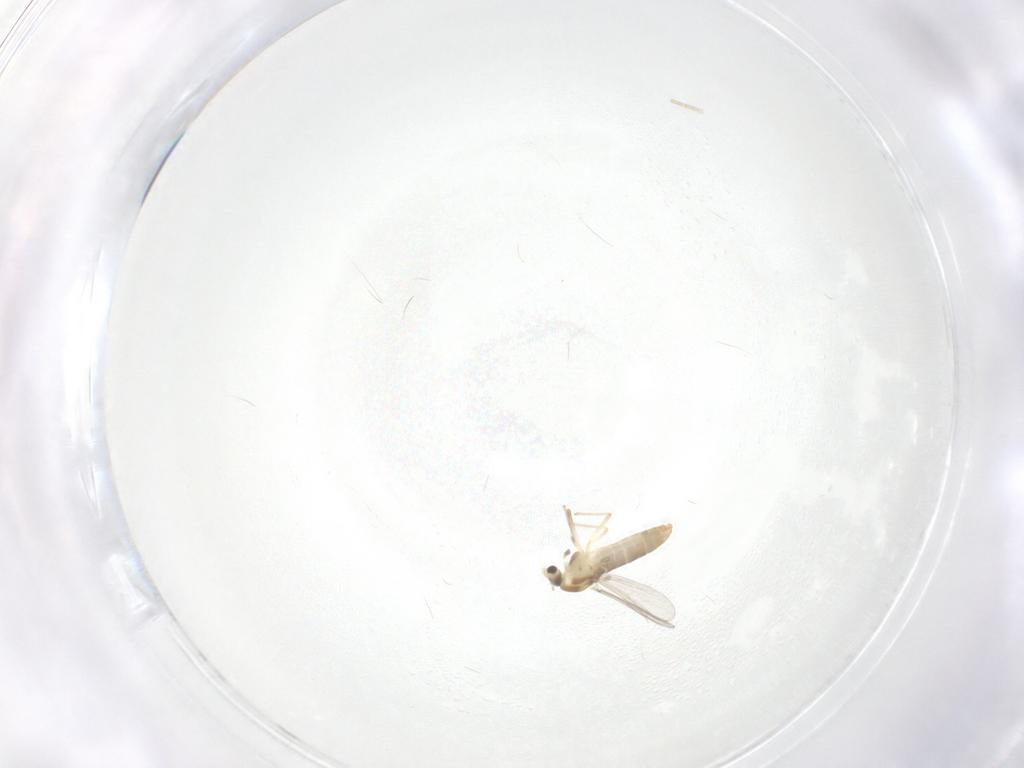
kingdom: Animalia
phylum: Arthropoda
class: Insecta
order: Diptera
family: Chironomidae
